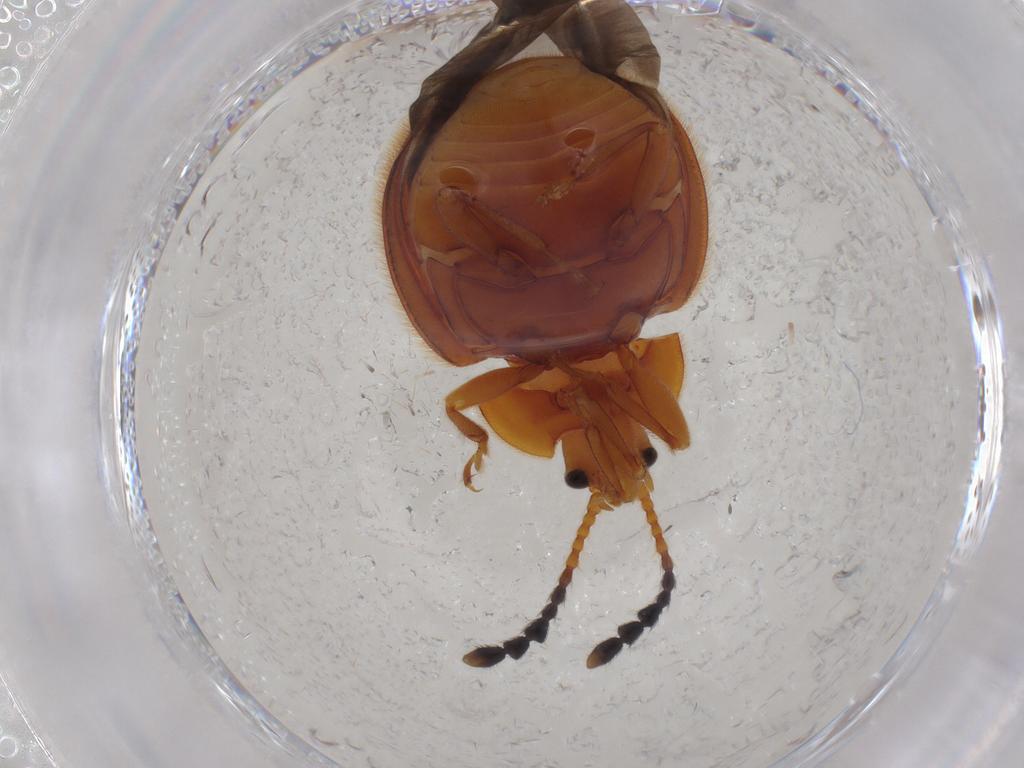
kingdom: Animalia
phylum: Arthropoda
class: Insecta
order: Coleoptera
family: Endomychidae
